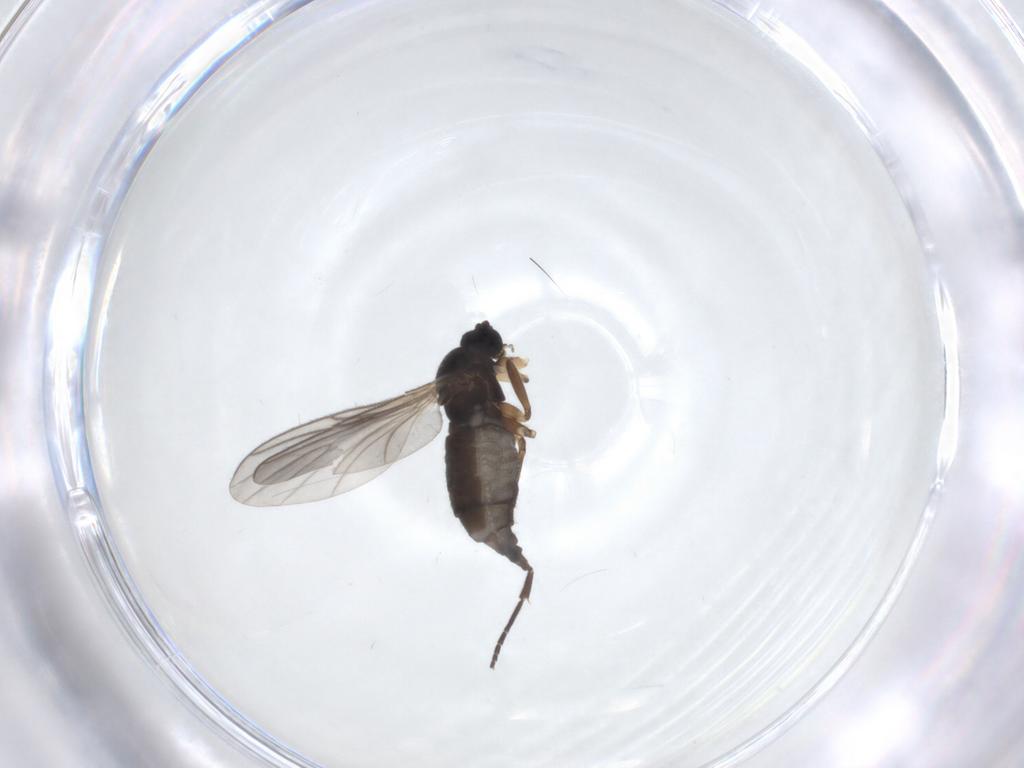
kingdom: Animalia
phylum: Arthropoda
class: Insecta
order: Diptera
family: Sciaridae
